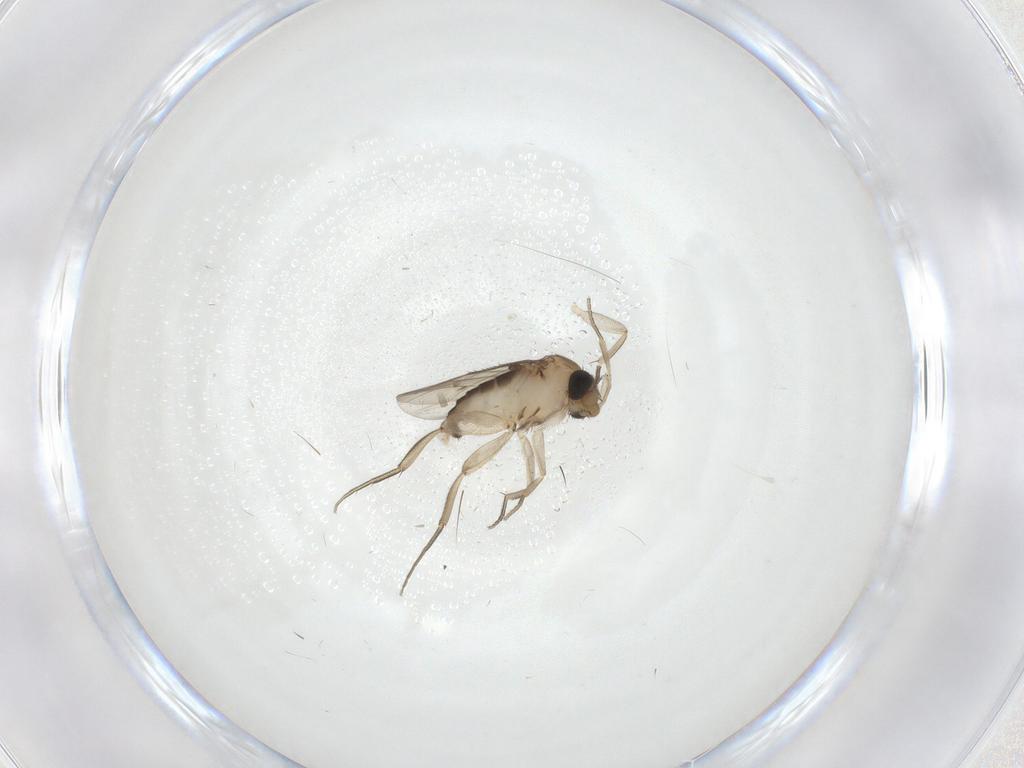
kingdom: Animalia
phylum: Arthropoda
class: Insecta
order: Diptera
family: Phoridae
